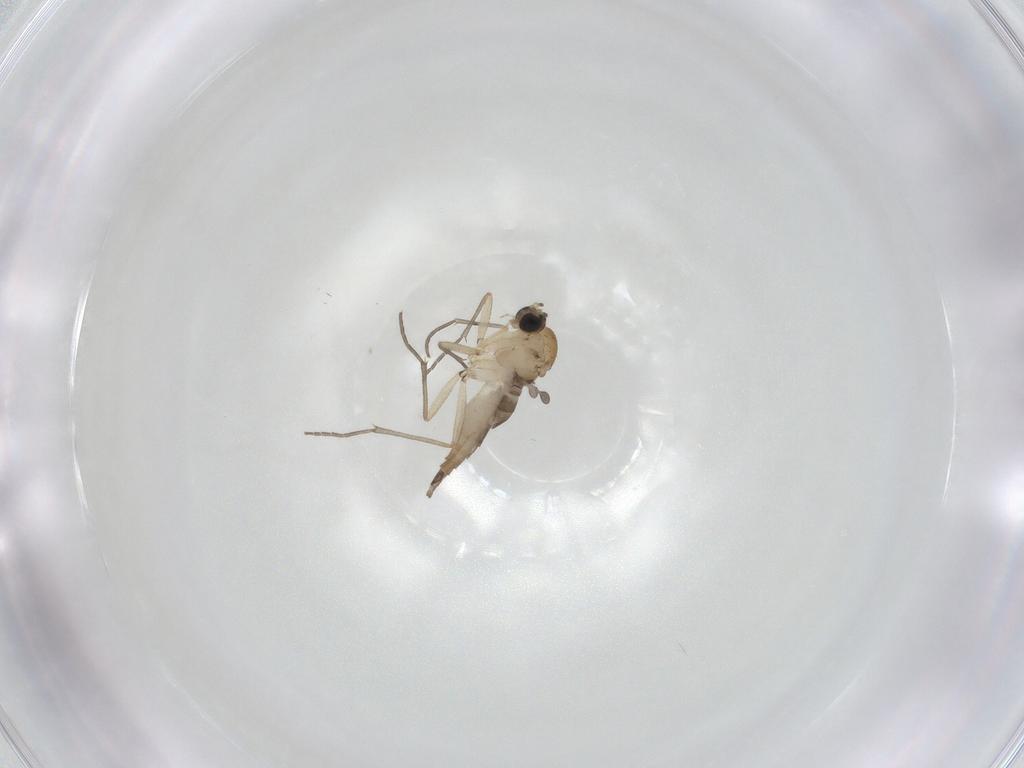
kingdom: Animalia
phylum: Arthropoda
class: Insecta
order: Diptera
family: Sciaridae
